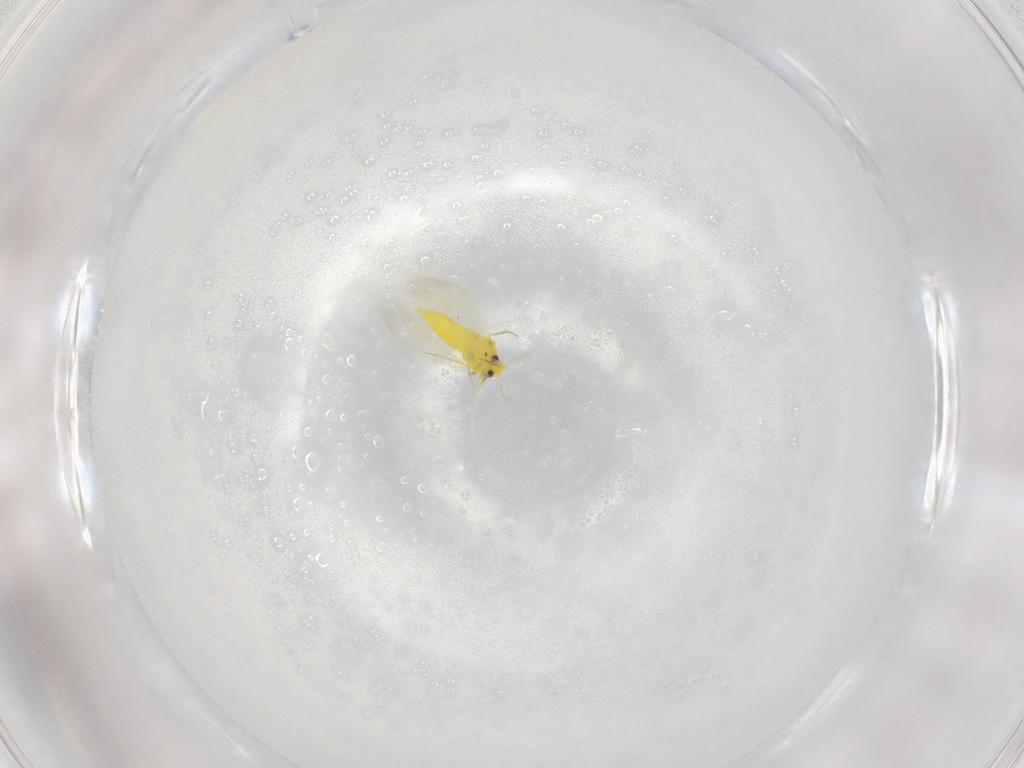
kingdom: Animalia
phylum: Arthropoda
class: Insecta
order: Hemiptera
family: Aleyrodidae
